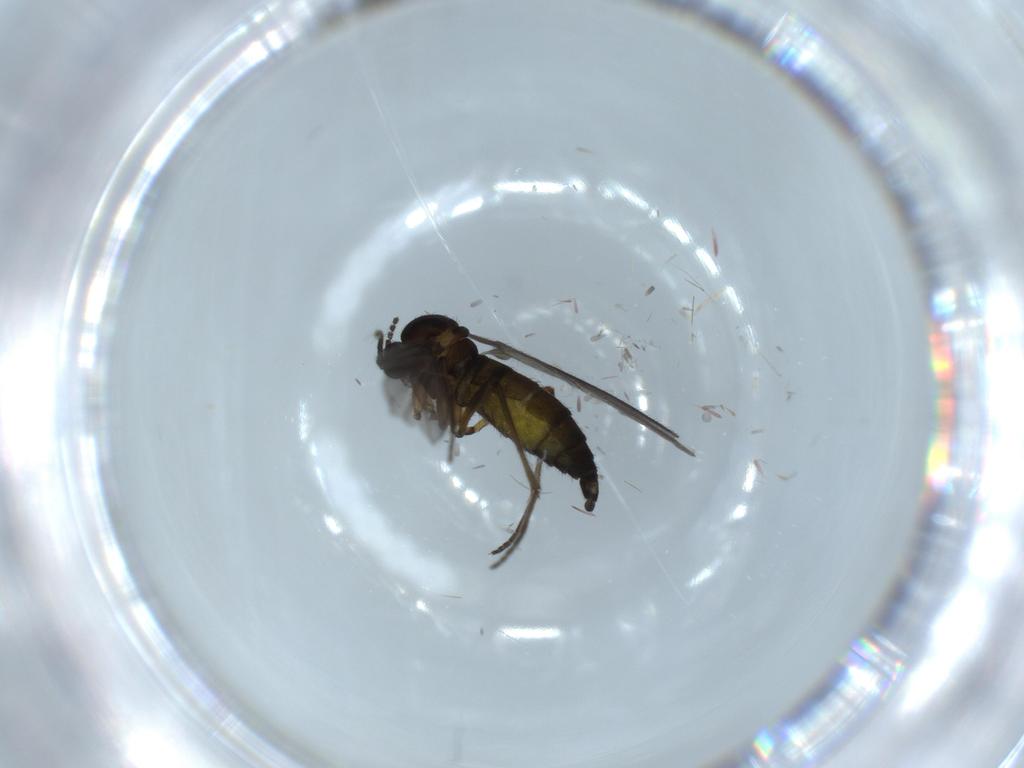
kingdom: Animalia
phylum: Arthropoda
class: Insecta
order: Diptera
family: Sciaridae
